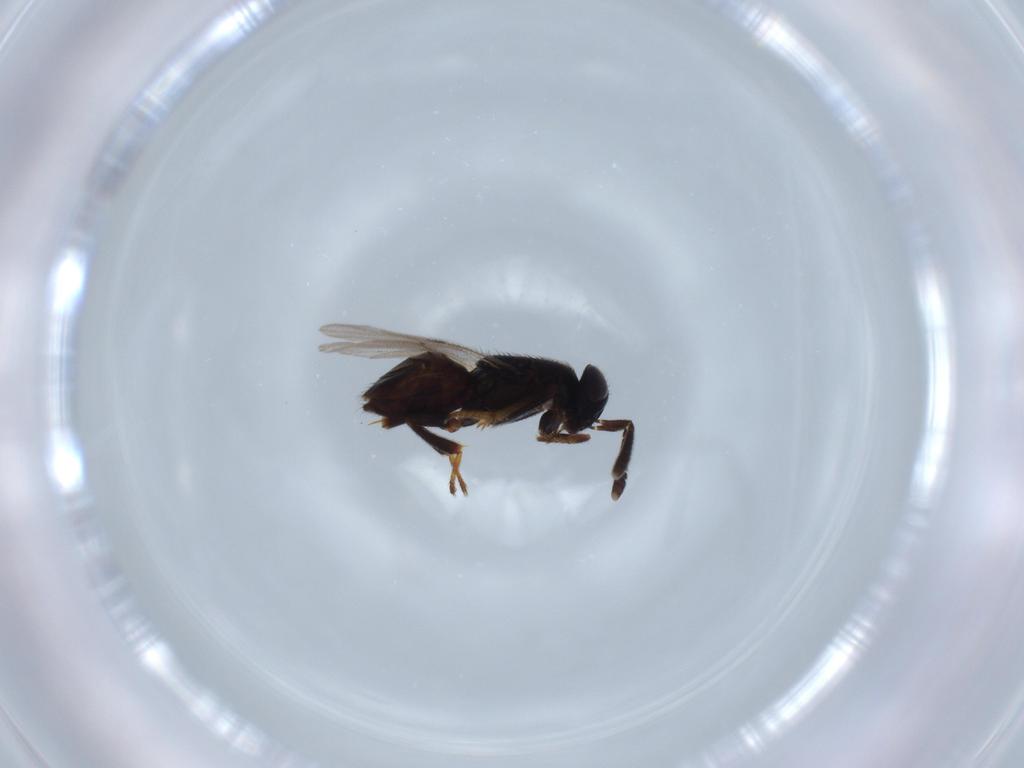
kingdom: Animalia
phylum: Arthropoda
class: Insecta
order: Hymenoptera
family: Encyrtidae
